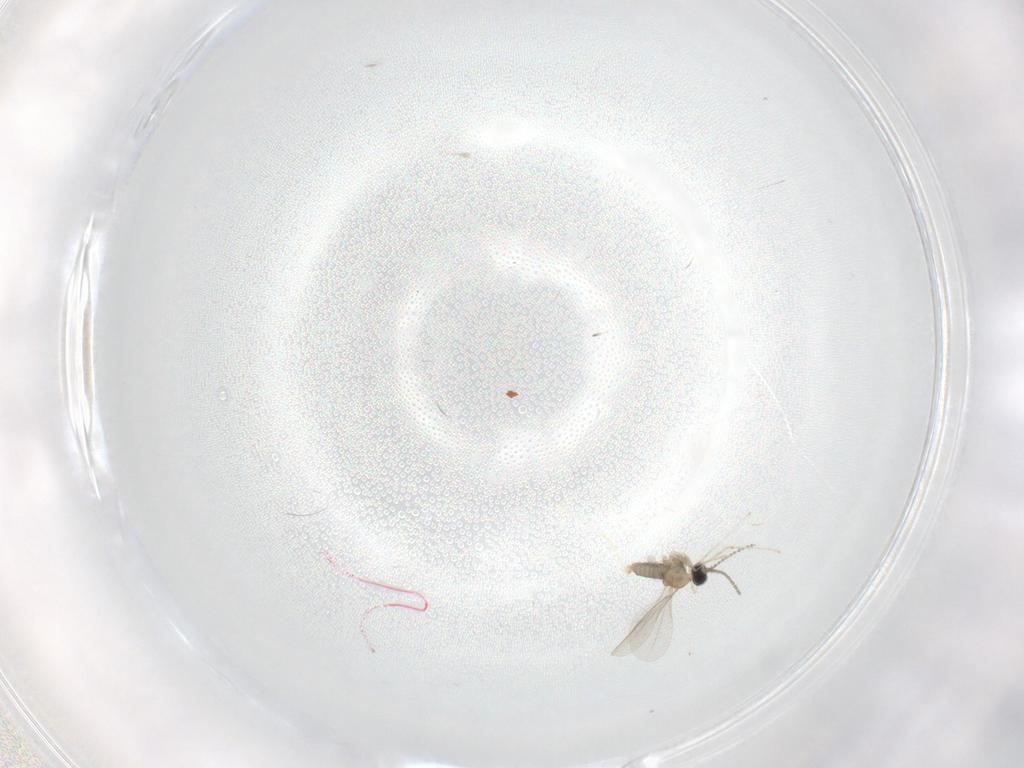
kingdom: Animalia
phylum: Arthropoda
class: Insecta
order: Diptera
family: Cecidomyiidae
